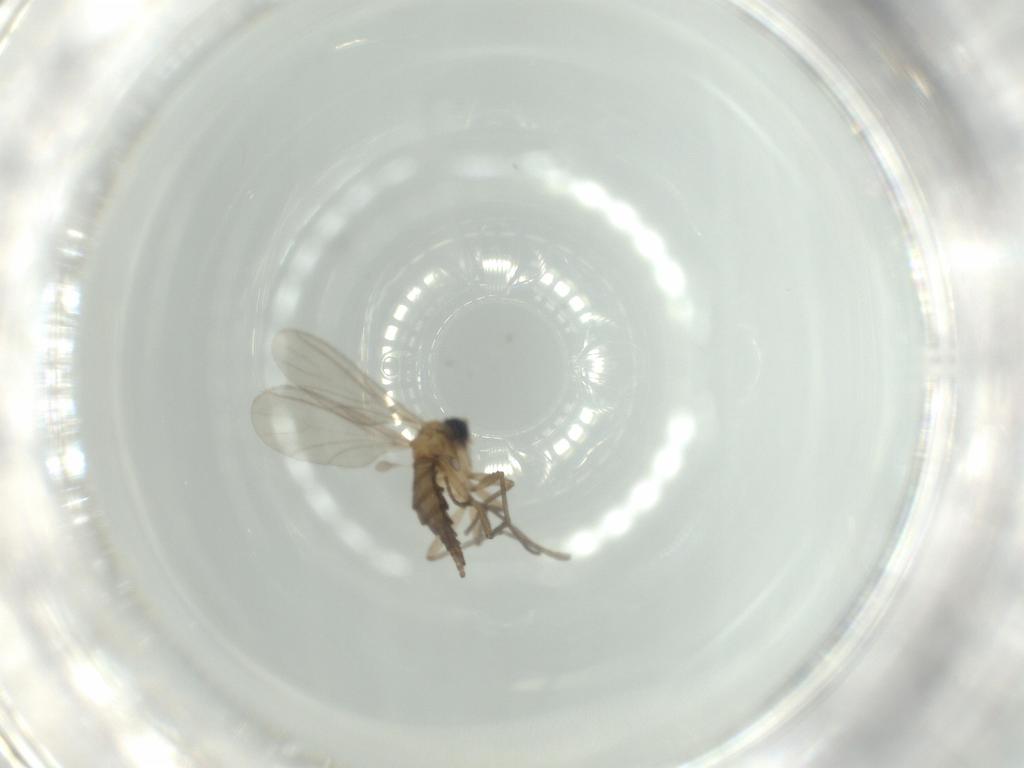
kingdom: Animalia
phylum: Arthropoda
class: Insecta
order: Diptera
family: Sciaridae
